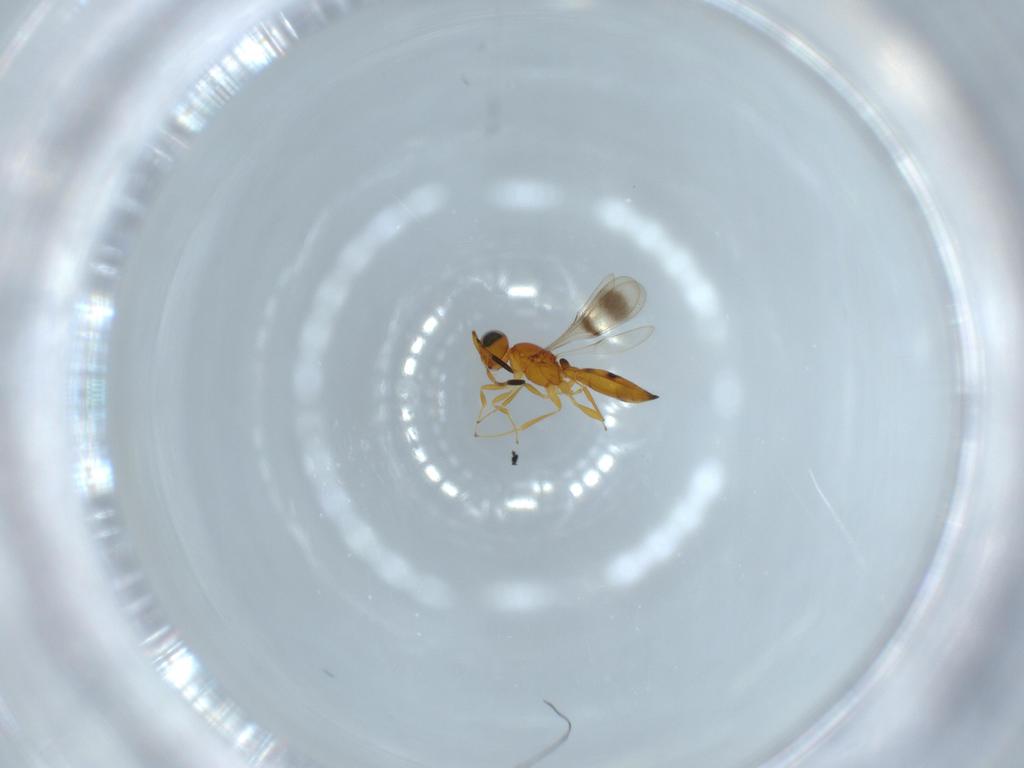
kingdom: Animalia
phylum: Arthropoda
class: Insecta
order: Hymenoptera
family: Scelionidae
